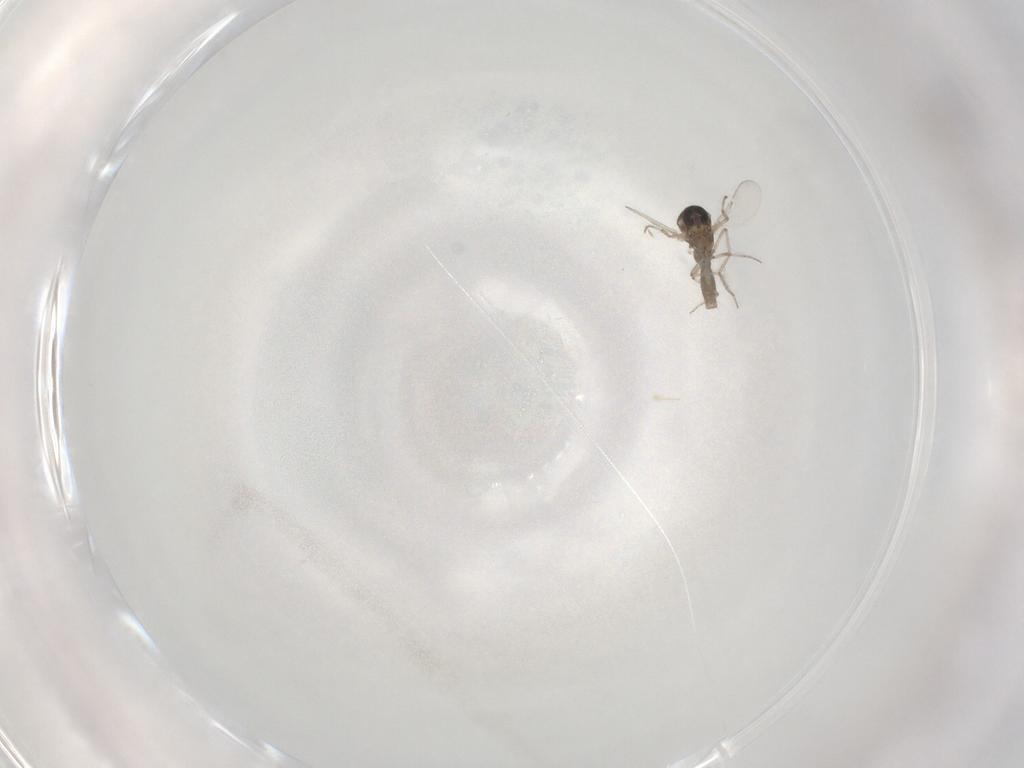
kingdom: Animalia
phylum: Arthropoda
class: Insecta
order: Diptera
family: Ceratopogonidae
